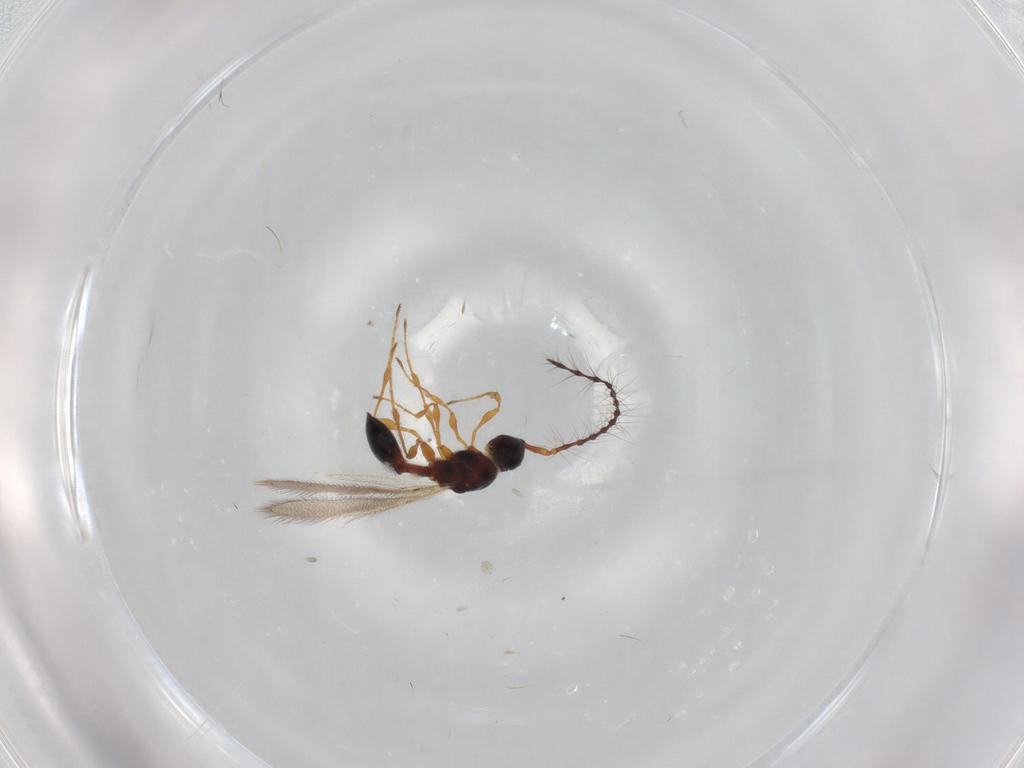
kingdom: Animalia
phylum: Arthropoda
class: Insecta
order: Hymenoptera
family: Diapriidae
